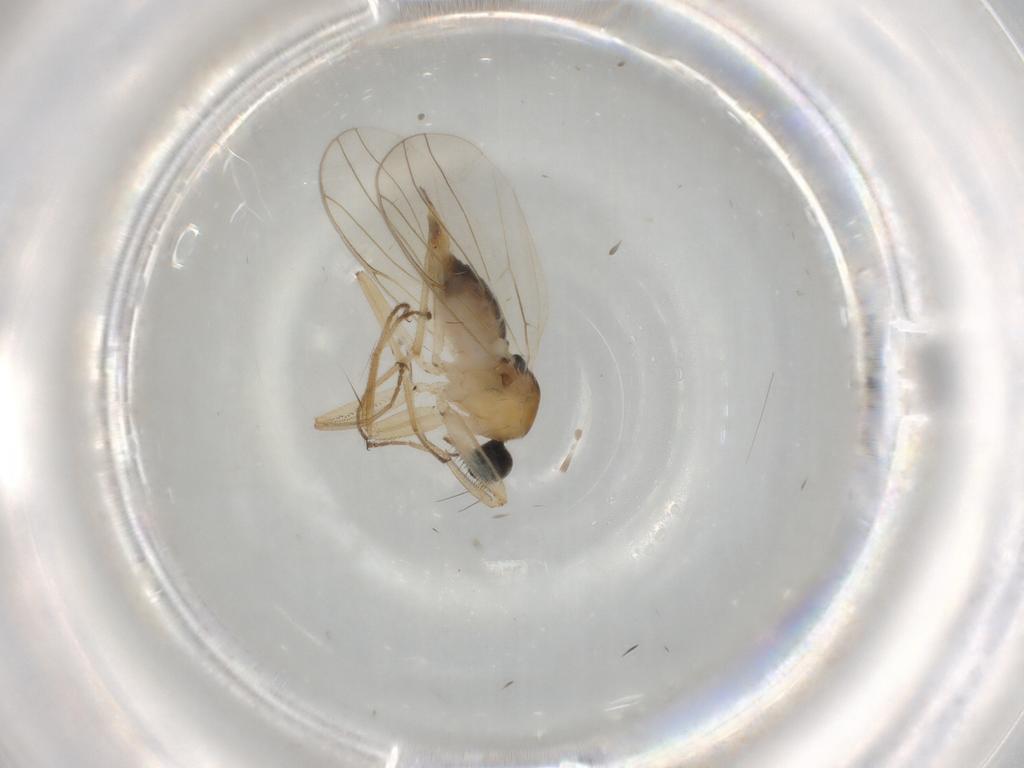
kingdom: Animalia
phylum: Arthropoda
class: Insecta
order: Diptera
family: Hybotidae
